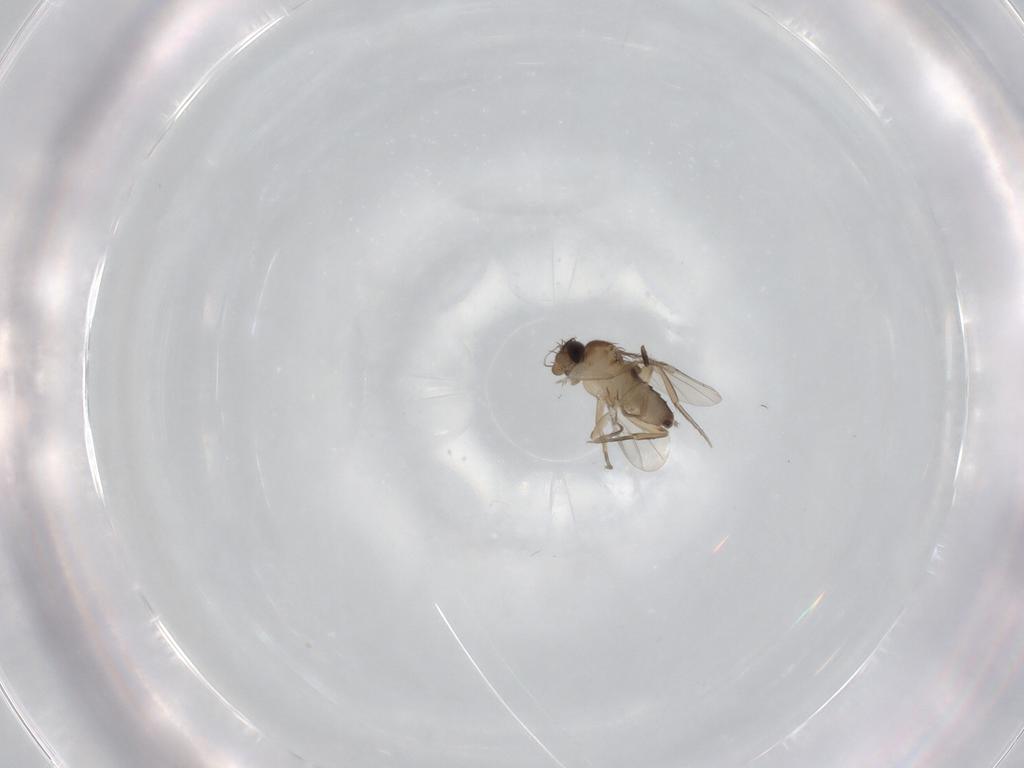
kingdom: Animalia
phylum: Arthropoda
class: Insecta
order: Diptera
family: Phoridae
